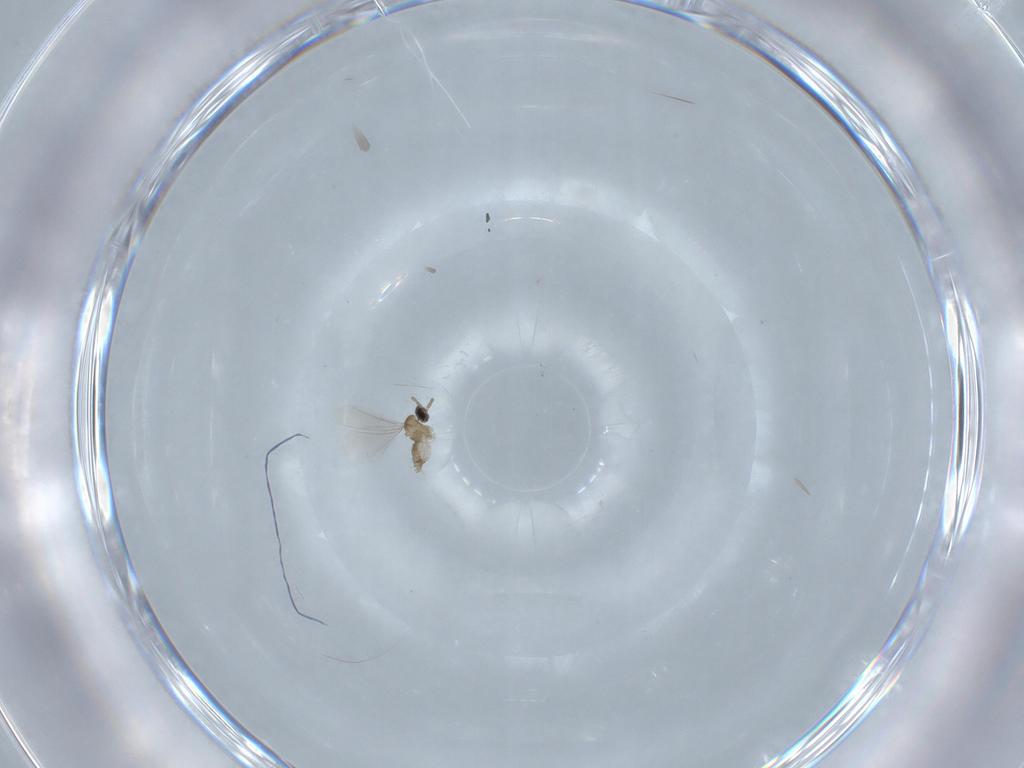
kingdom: Animalia
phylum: Arthropoda
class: Insecta
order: Diptera
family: Cecidomyiidae
